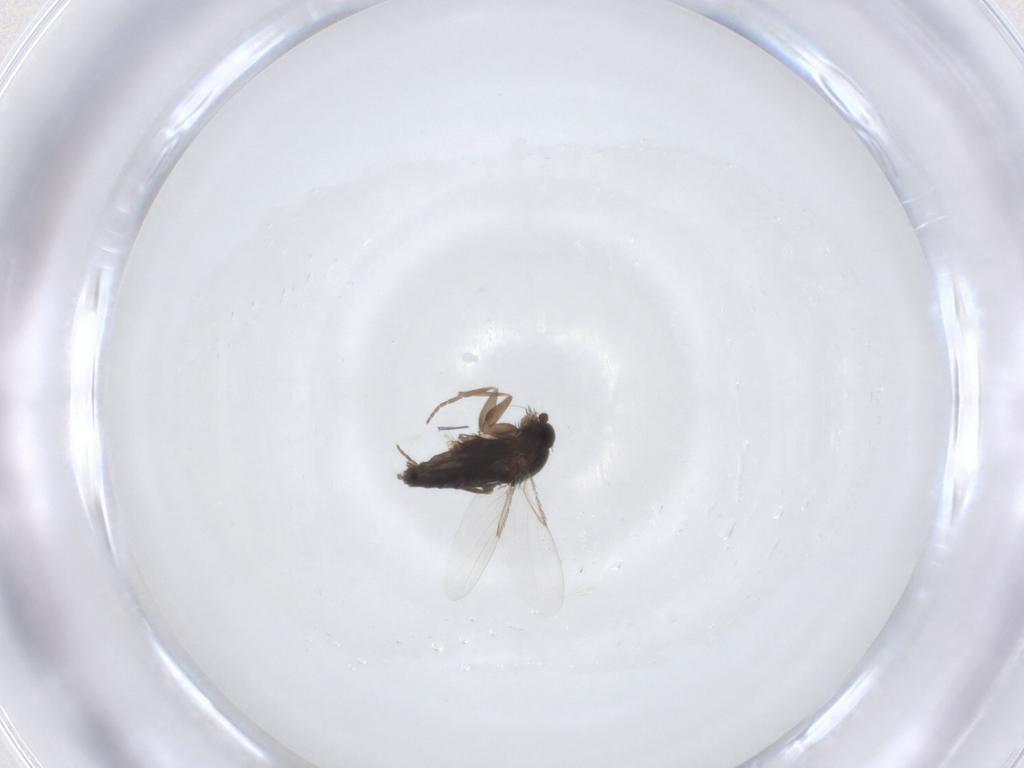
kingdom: Animalia
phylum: Arthropoda
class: Insecta
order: Diptera
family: Phoridae
